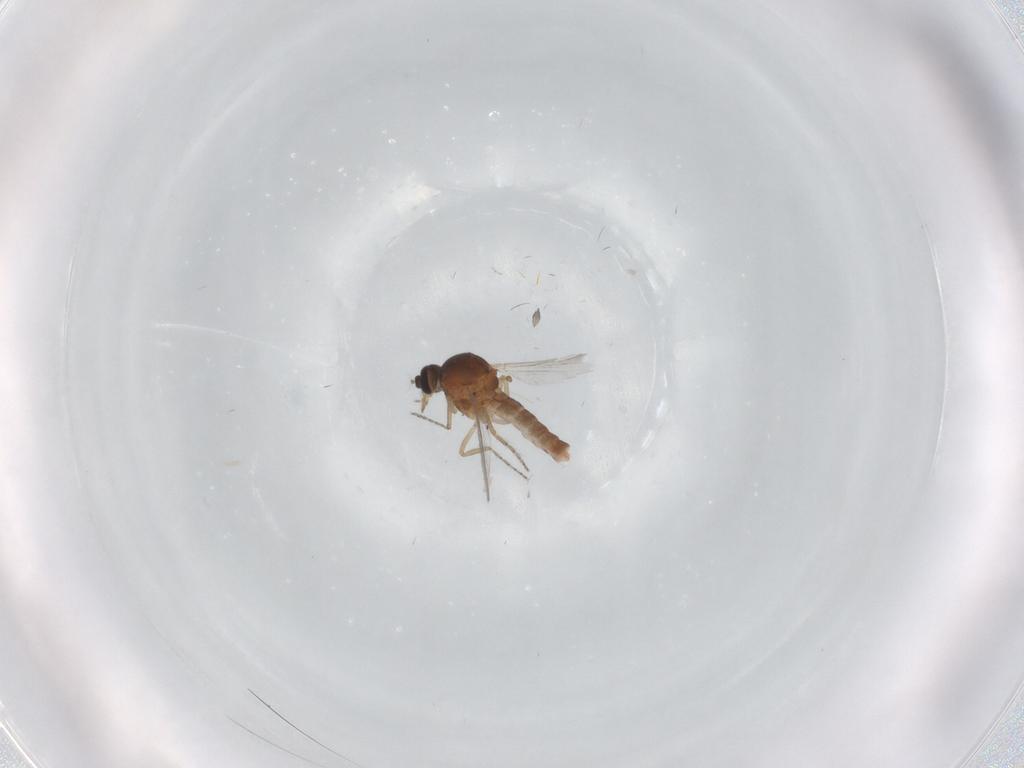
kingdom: Animalia
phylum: Arthropoda
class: Insecta
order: Diptera
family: Ceratopogonidae
